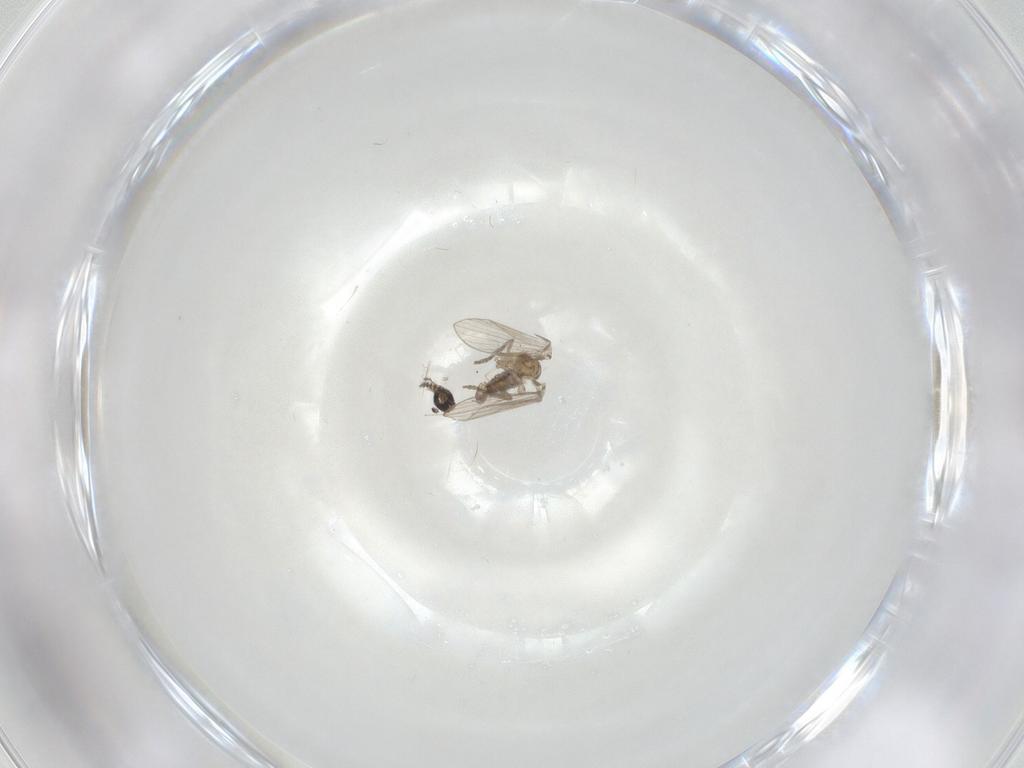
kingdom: Animalia
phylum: Arthropoda
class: Insecta
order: Diptera
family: Psychodidae
